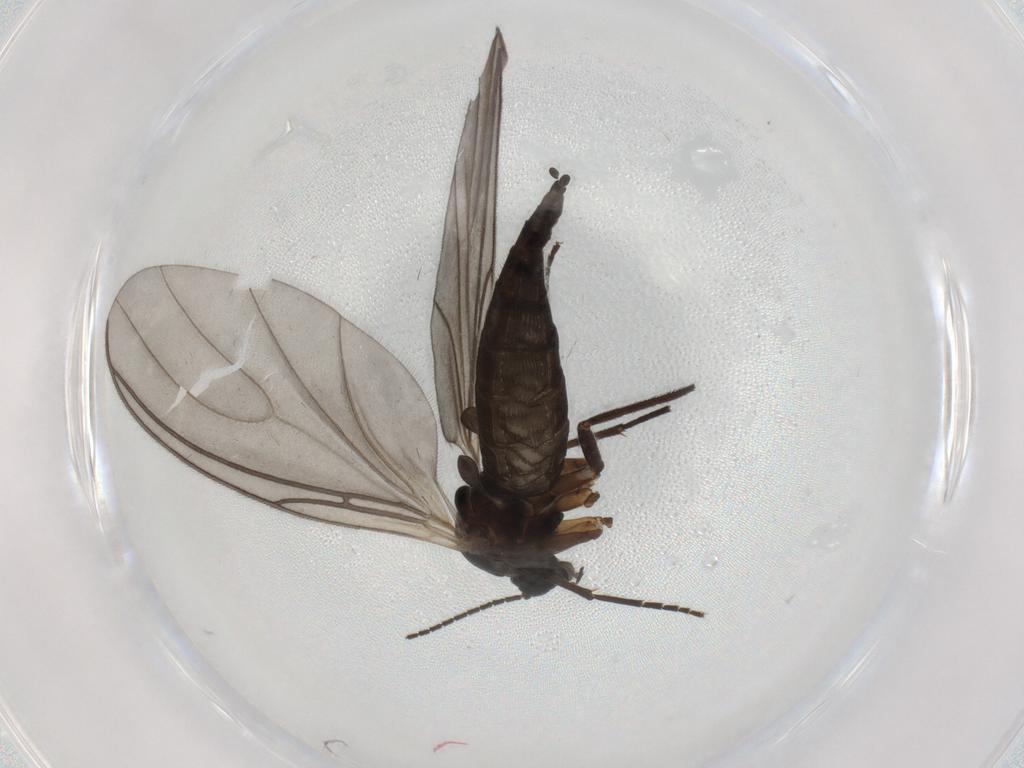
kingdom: Animalia
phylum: Arthropoda
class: Insecta
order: Diptera
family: Sciaridae
